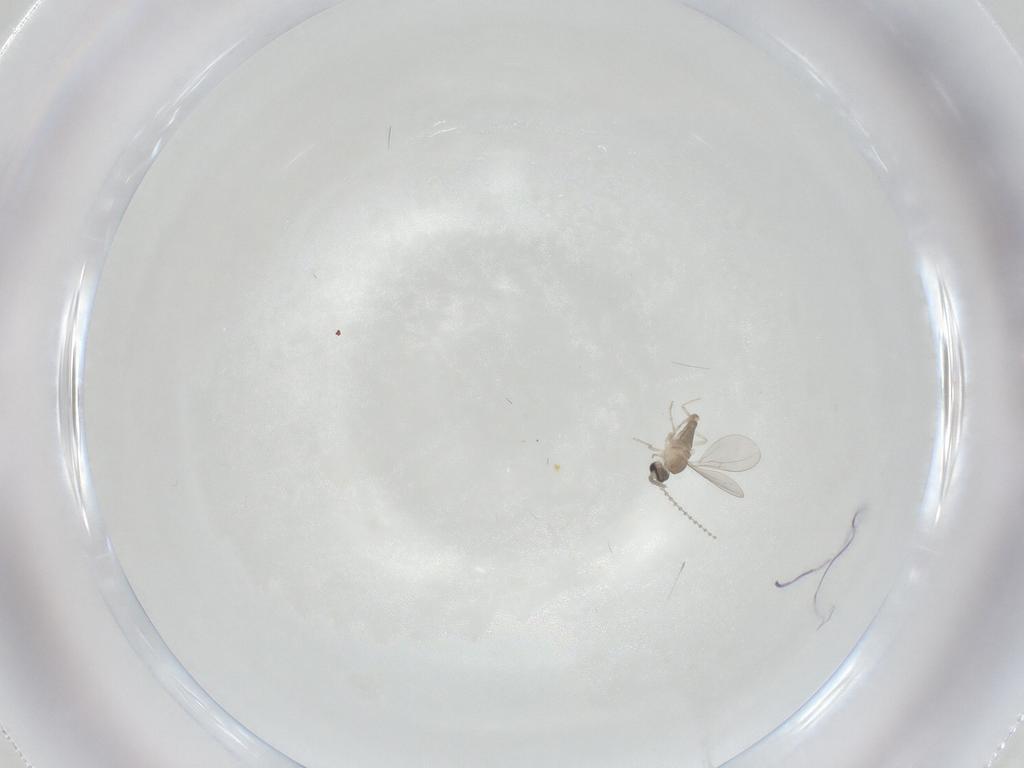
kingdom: Animalia
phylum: Arthropoda
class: Insecta
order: Diptera
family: Cecidomyiidae
